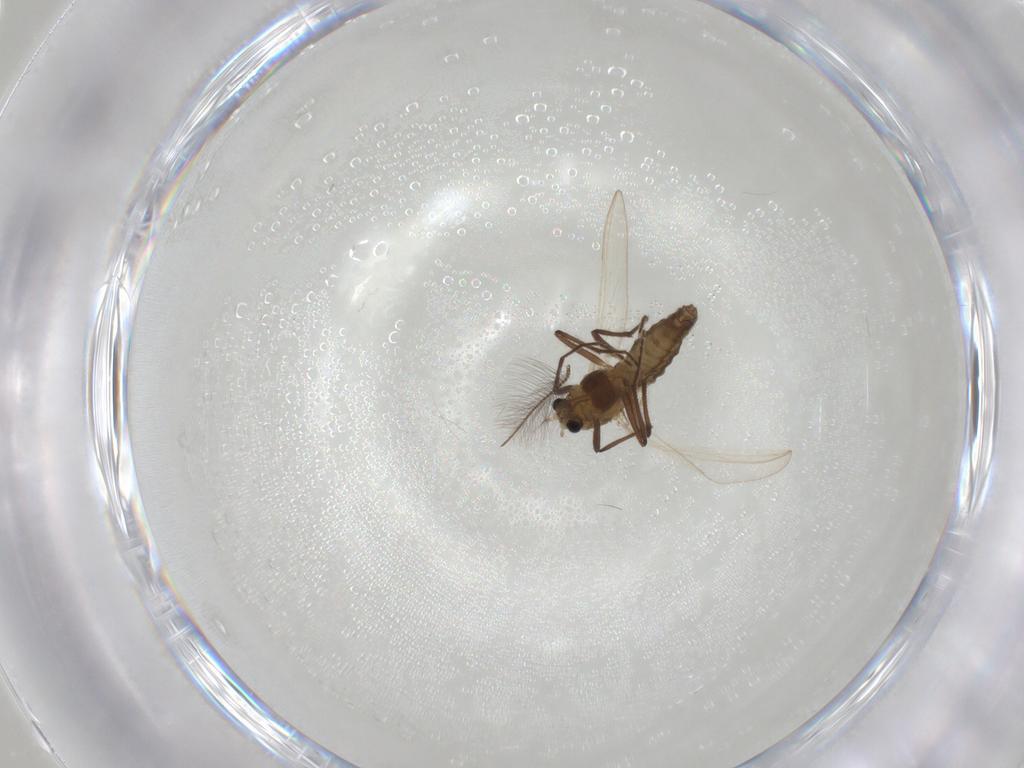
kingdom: Animalia
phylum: Arthropoda
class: Insecta
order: Diptera
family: Chironomidae
